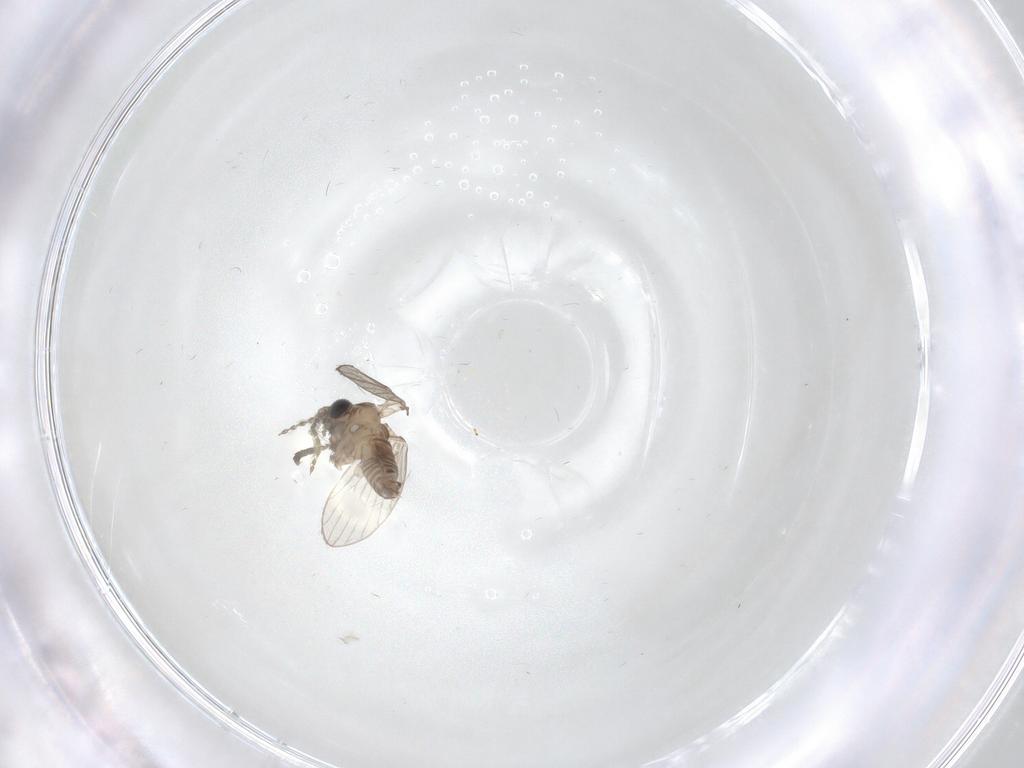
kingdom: Animalia
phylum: Arthropoda
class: Insecta
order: Diptera
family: Psychodidae
